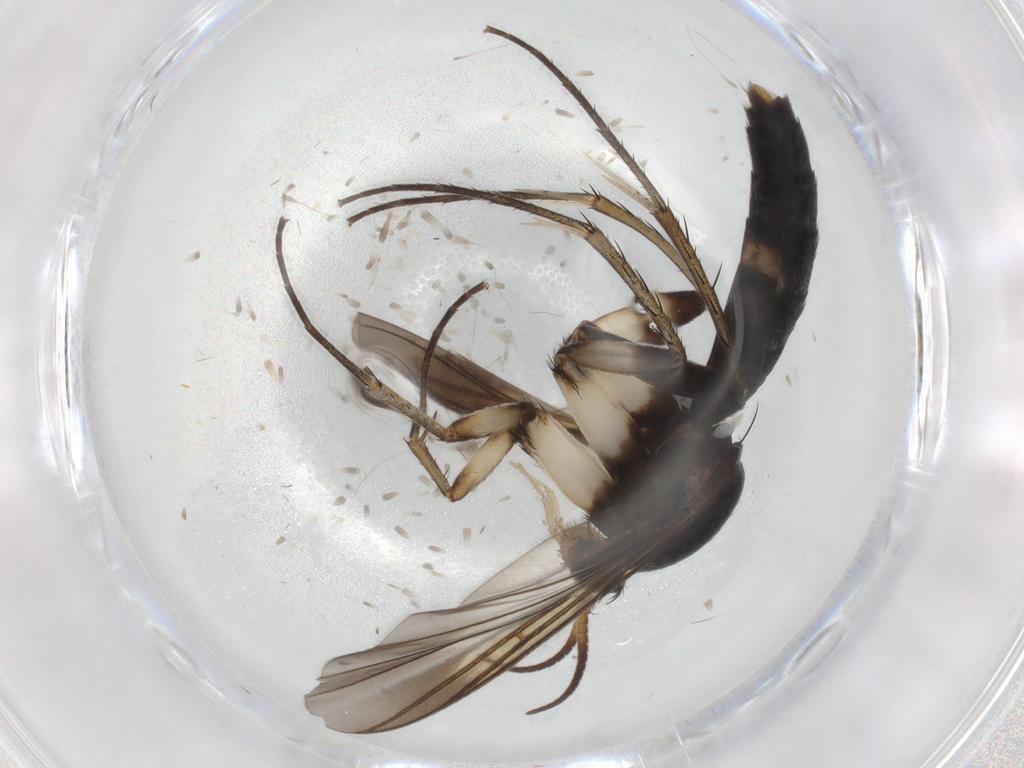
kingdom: Animalia
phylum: Arthropoda
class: Insecta
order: Diptera
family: Mycetophilidae
